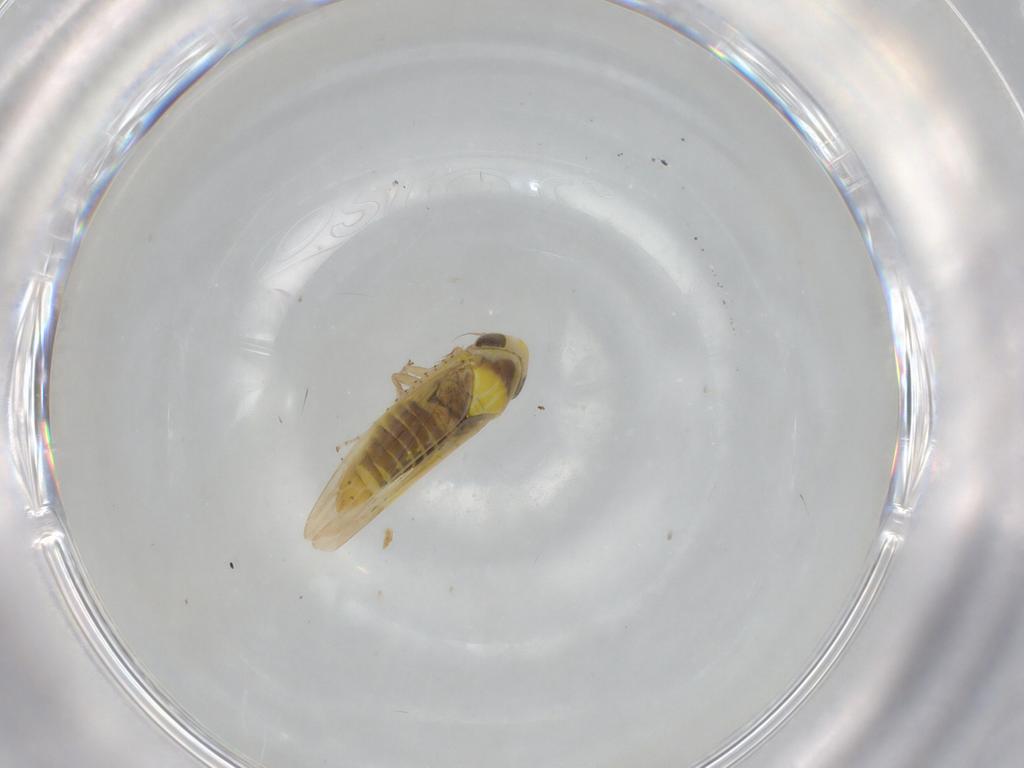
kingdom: Animalia
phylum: Arthropoda
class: Insecta
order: Hemiptera
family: Cicadellidae
